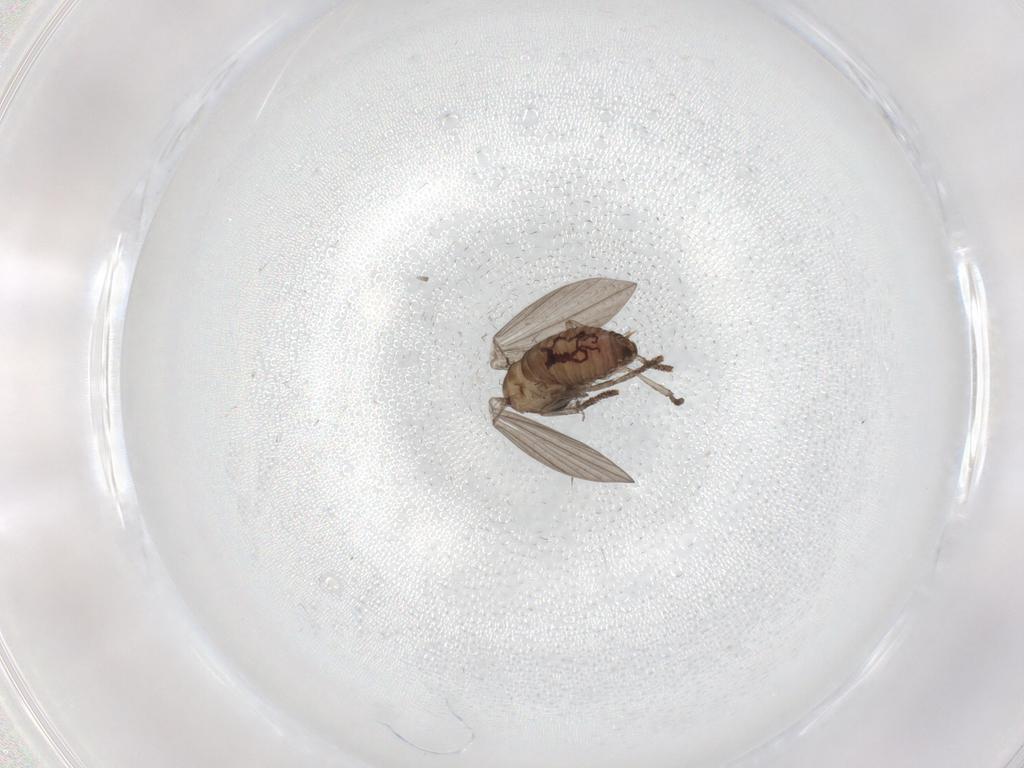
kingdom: Animalia
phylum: Arthropoda
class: Insecta
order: Diptera
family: Psychodidae
